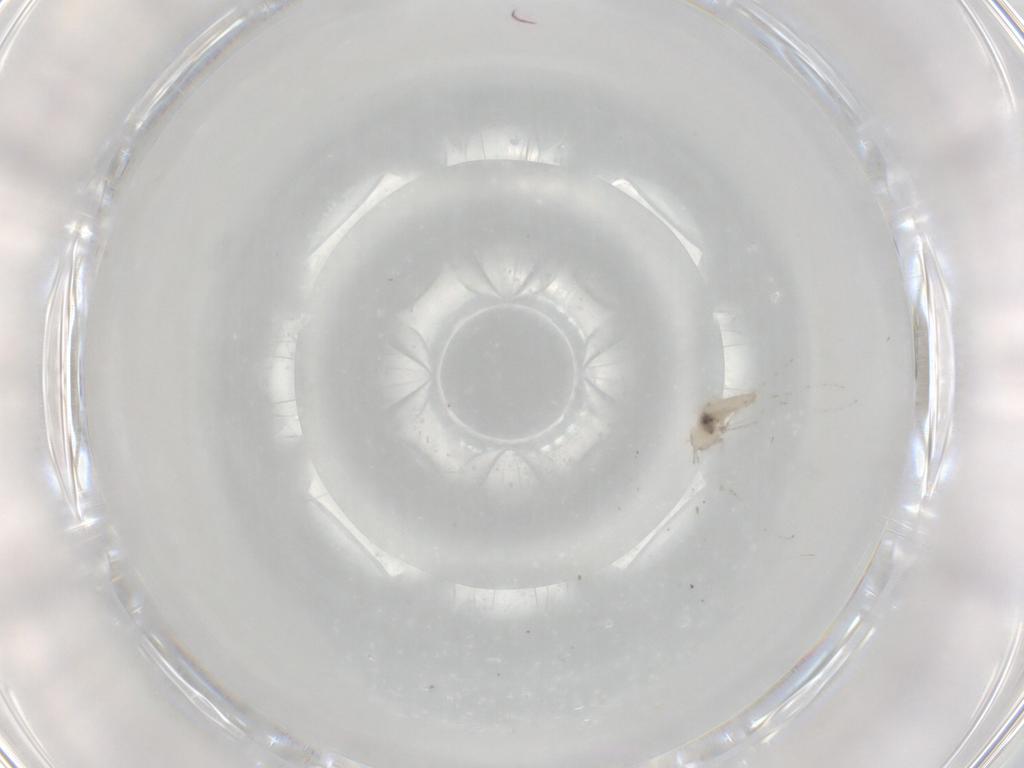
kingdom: Animalia
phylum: Arthropoda
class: Insecta
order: Diptera
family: Cecidomyiidae
